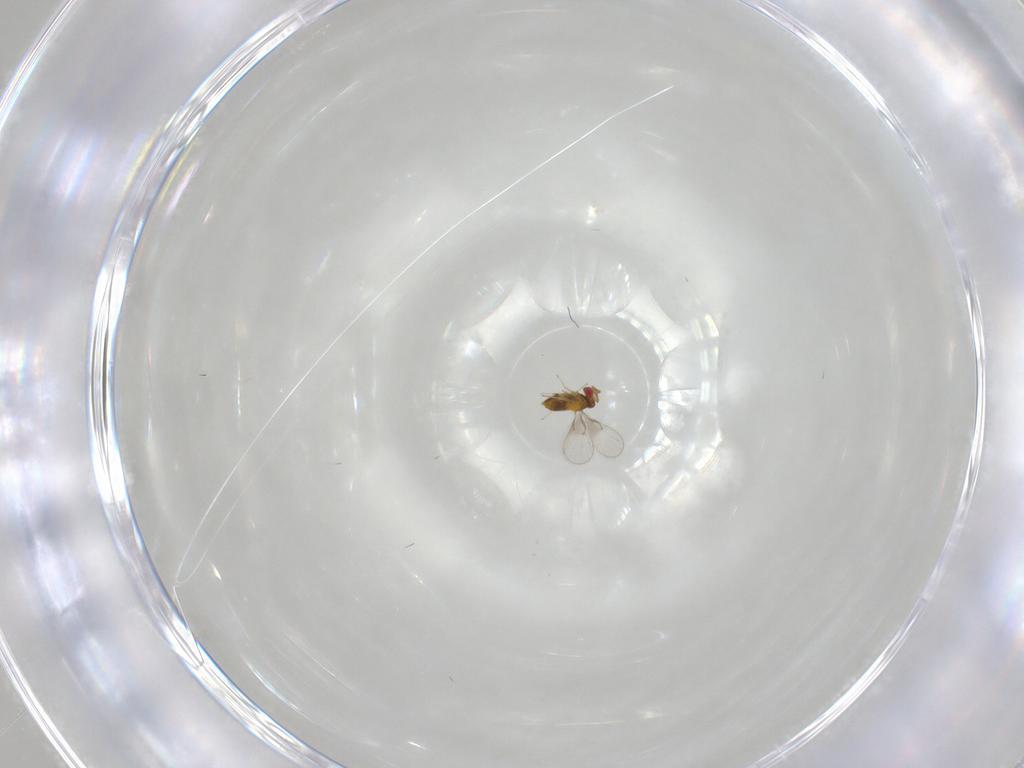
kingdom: Animalia
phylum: Arthropoda
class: Insecta
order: Hymenoptera
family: Trichogrammatidae
